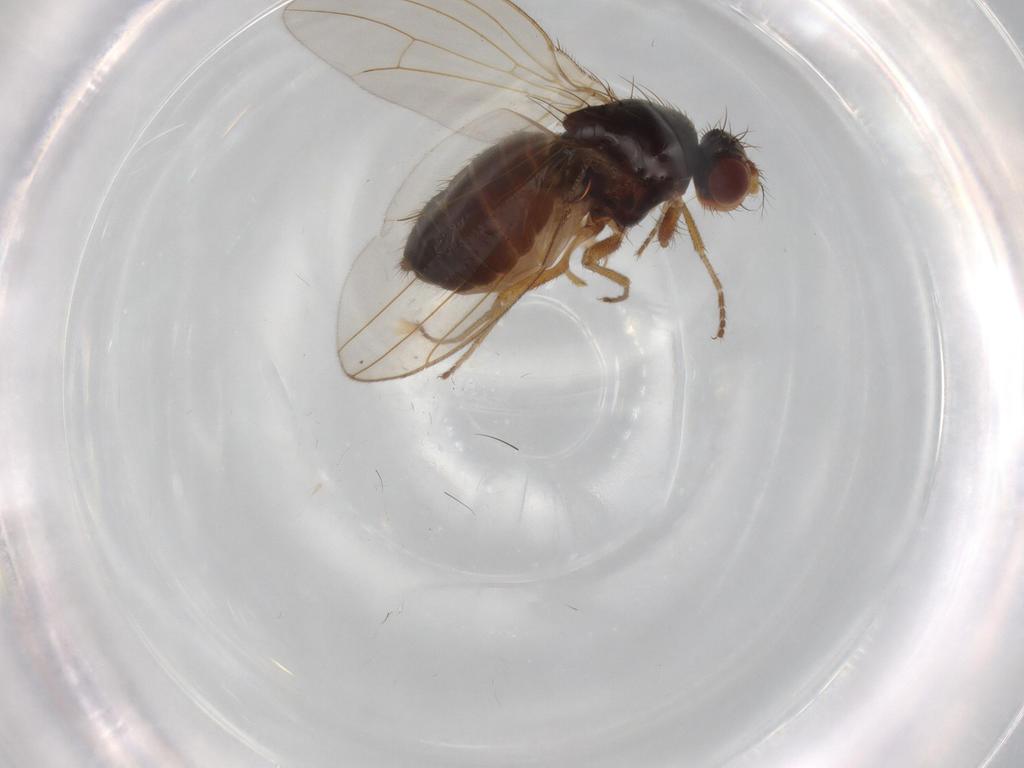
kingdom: Animalia
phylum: Arthropoda
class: Insecta
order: Diptera
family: Drosophilidae
